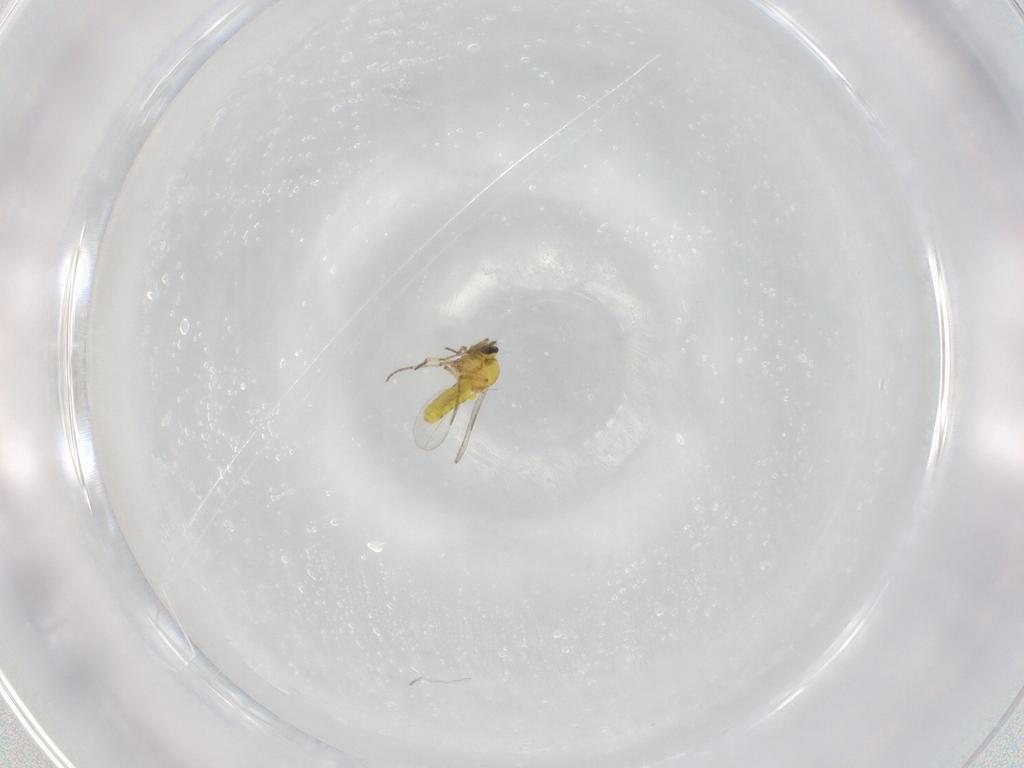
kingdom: Animalia
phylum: Arthropoda
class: Insecta
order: Diptera
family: Ceratopogonidae
